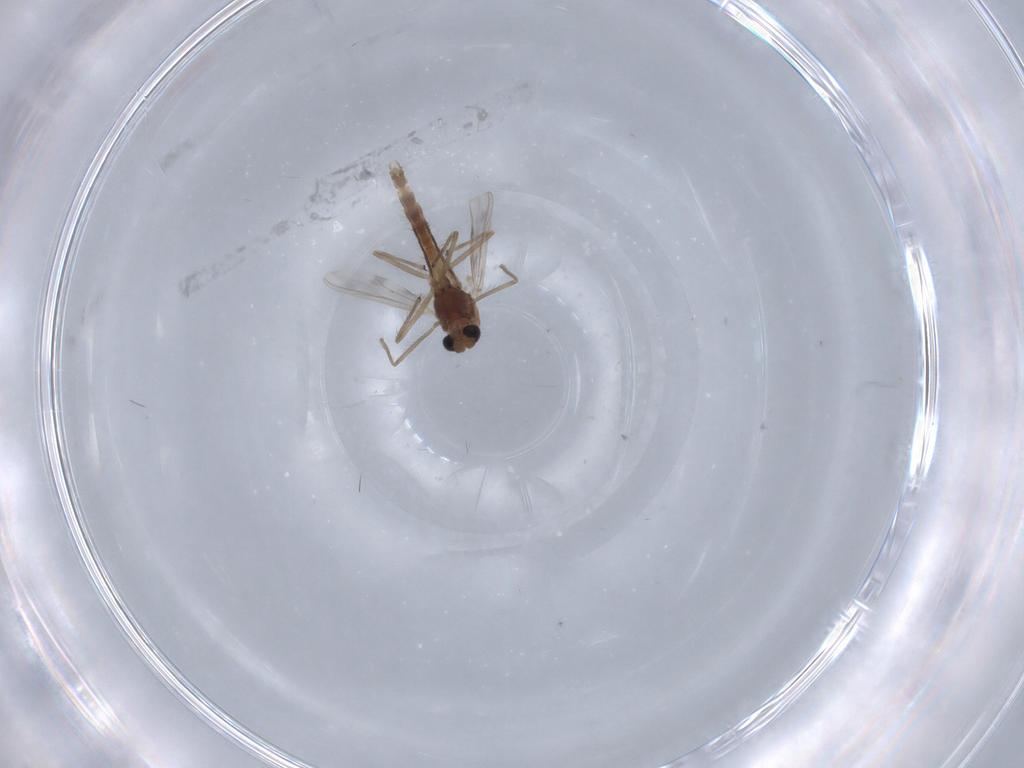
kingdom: Animalia
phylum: Arthropoda
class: Insecta
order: Diptera
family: Chironomidae
